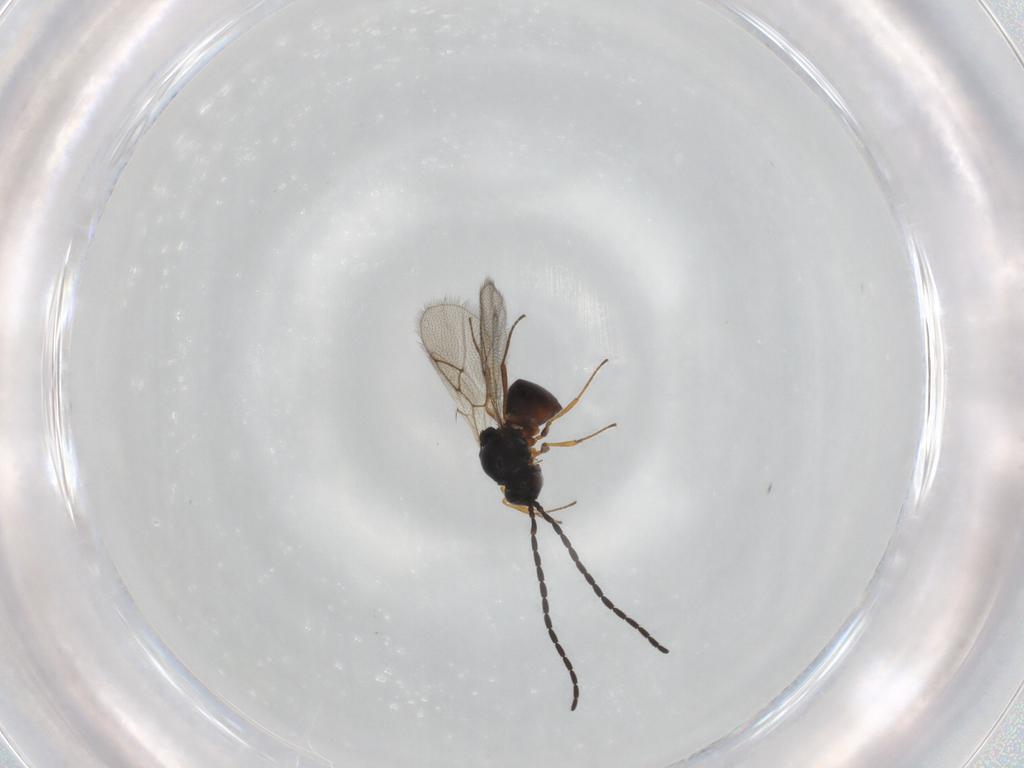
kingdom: Animalia
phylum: Arthropoda
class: Insecta
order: Hymenoptera
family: Figitidae
